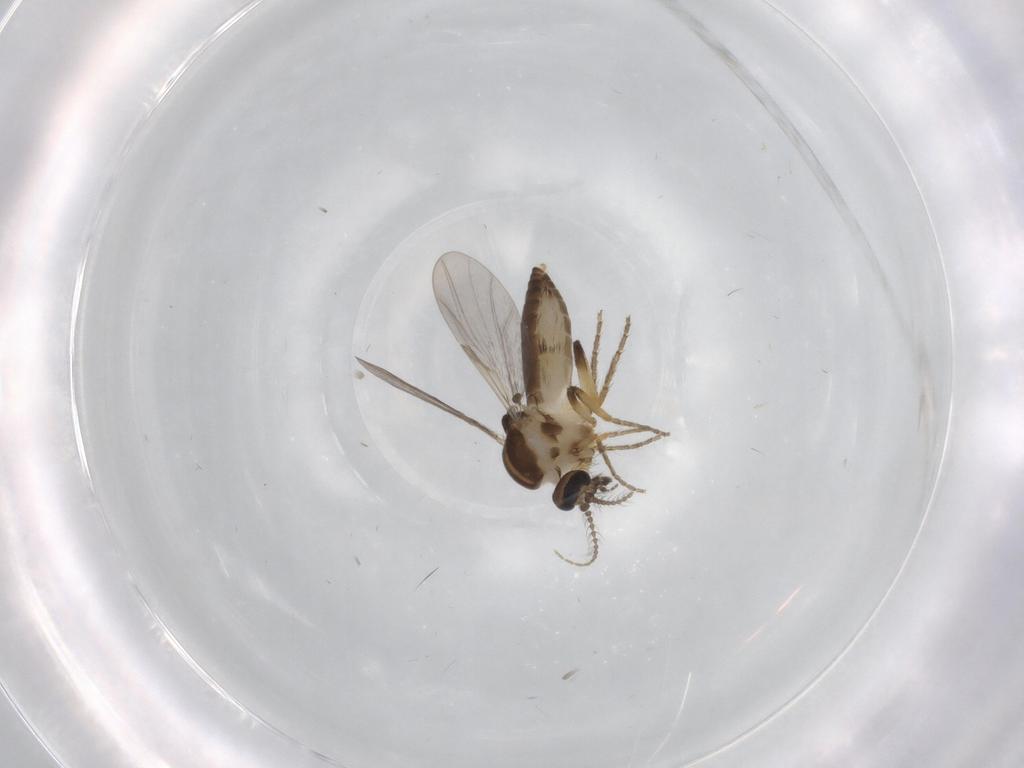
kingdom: Animalia
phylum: Arthropoda
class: Insecta
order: Diptera
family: Ceratopogonidae
